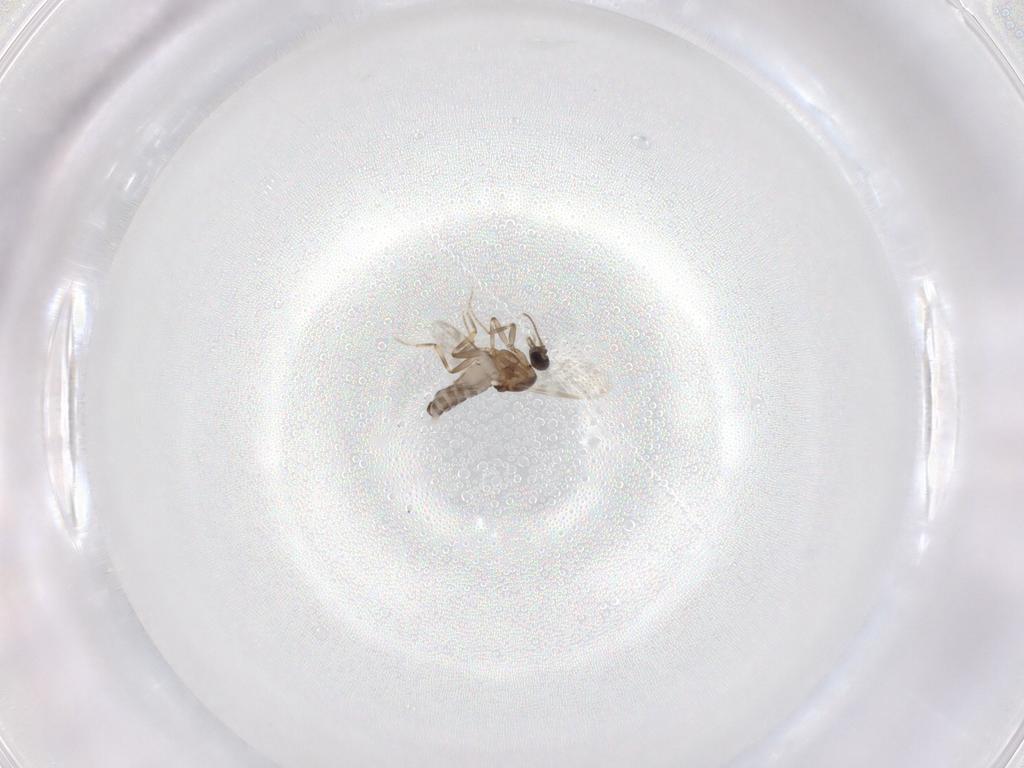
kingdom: Animalia
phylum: Arthropoda
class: Insecta
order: Diptera
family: Ceratopogonidae
